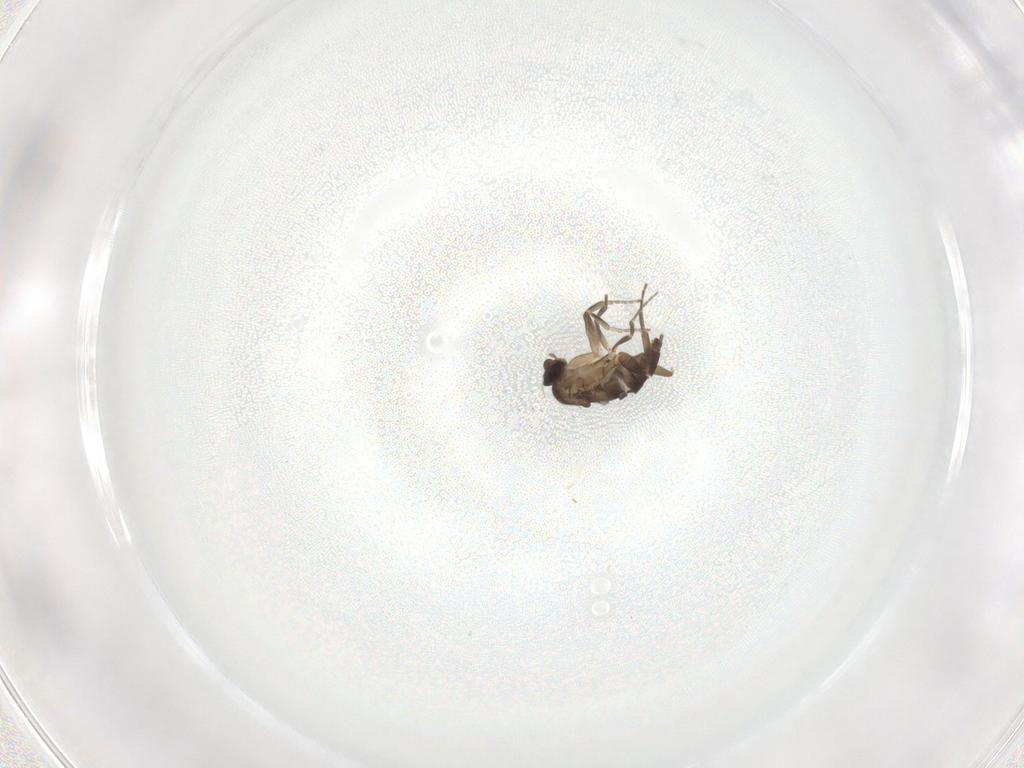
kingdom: Animalia
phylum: Arthropoda
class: Insecta
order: Diptera
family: Phoridae
